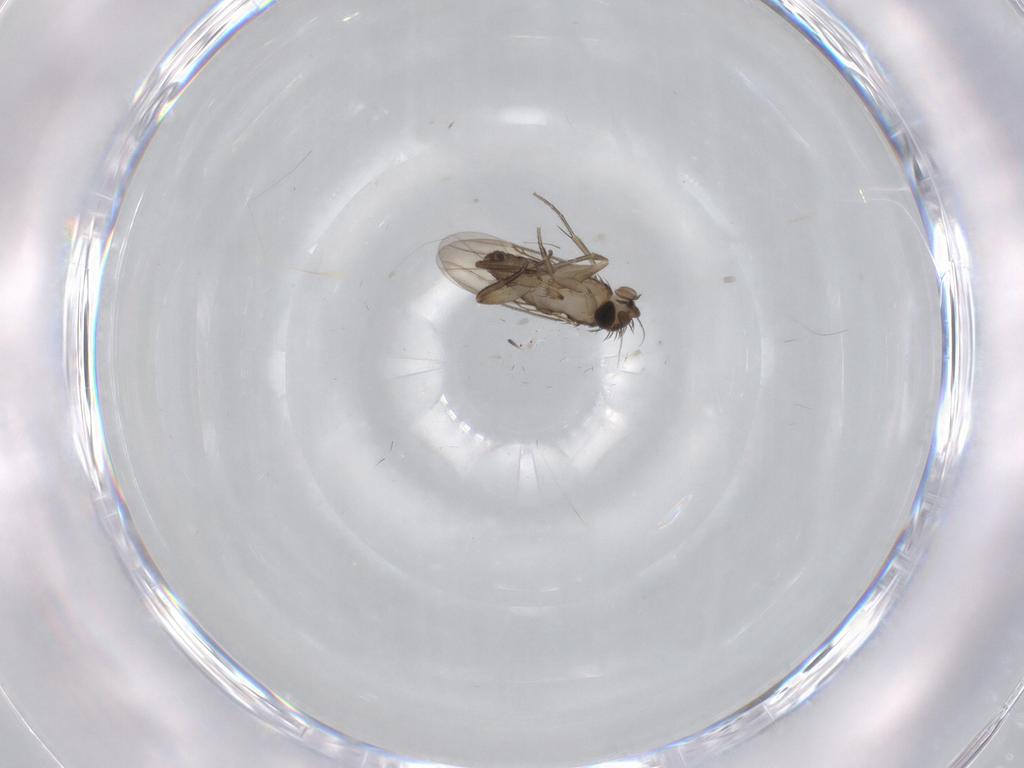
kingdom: Animalia
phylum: Arthropoda
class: Insecta
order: Diptera
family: Phoridae
